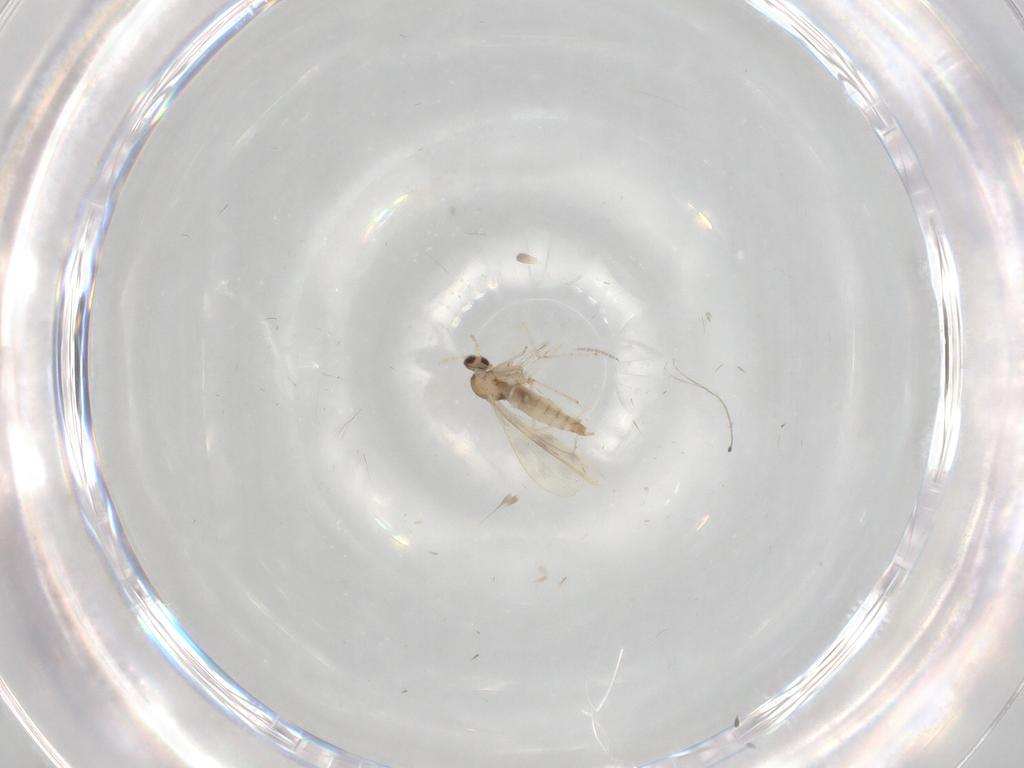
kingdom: Animalia
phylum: Arthropoda
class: Insecta
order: Diptera
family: Cecidomyiidae
